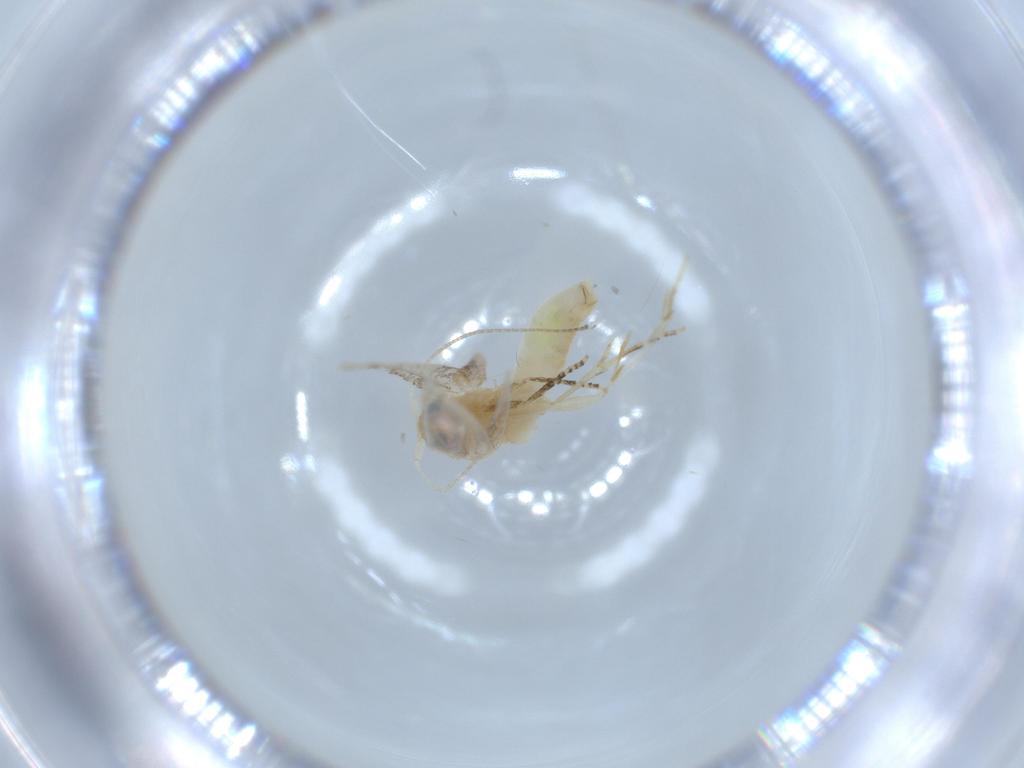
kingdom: Animalia
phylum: Arthropoda
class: Insecta
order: Lepidoptera
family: Bucculatricidae
